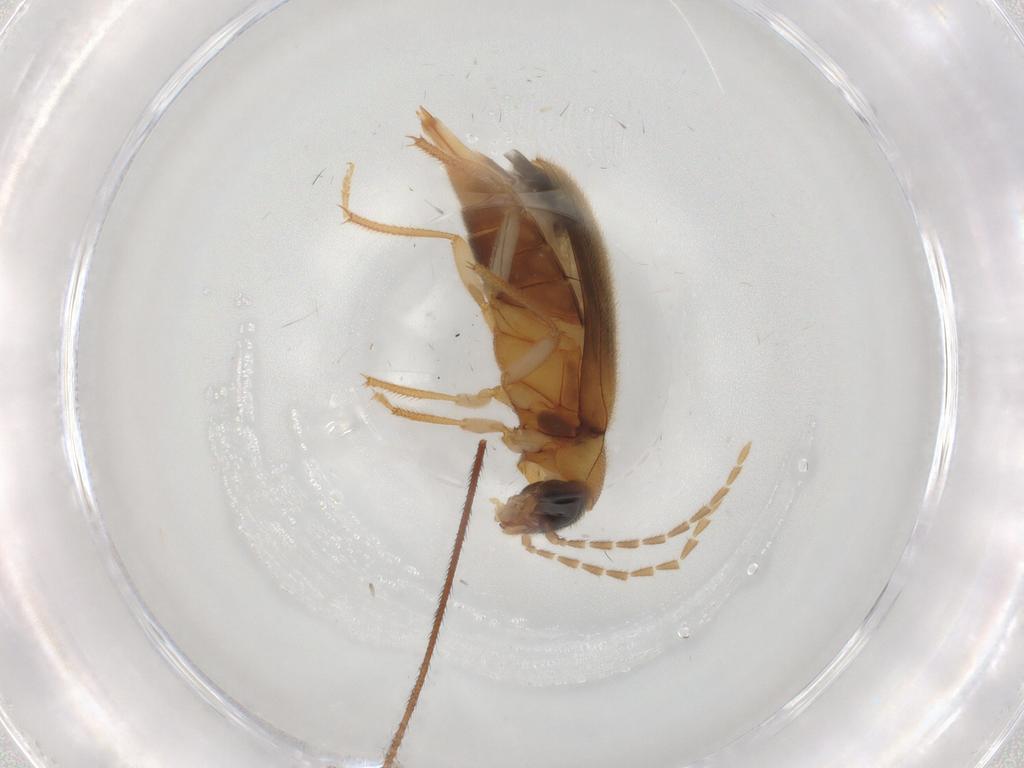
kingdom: Animalia
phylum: Arthropoda
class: Insecta
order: Coleoptera
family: Ptilodactylidae
